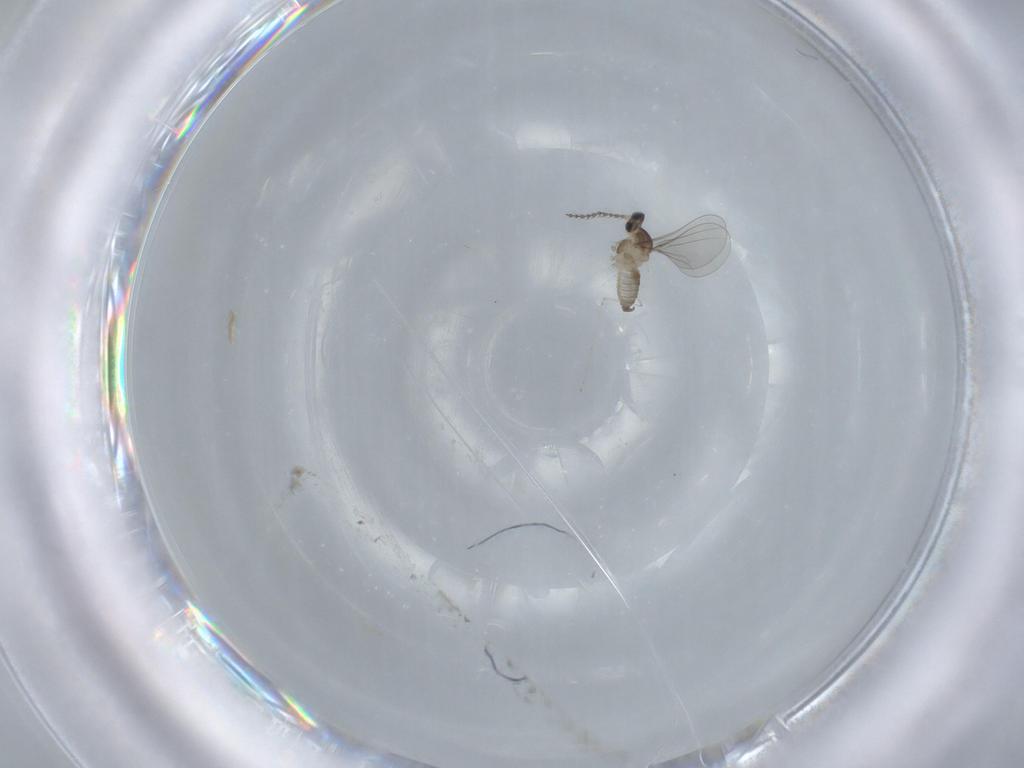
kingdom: Animalia
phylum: Arthropoda
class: Insecta
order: Diptera
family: Cecidomyiidae
